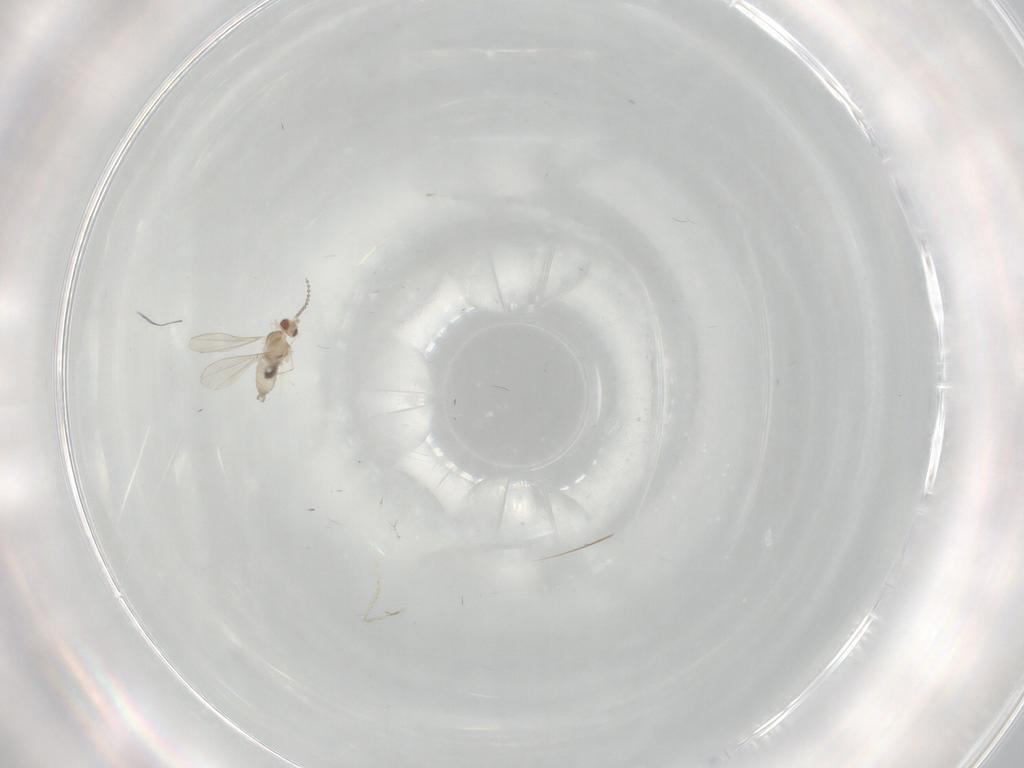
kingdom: Animalia
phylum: Arthropoda
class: Insecta
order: Diptera
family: Cecidomyiidae
